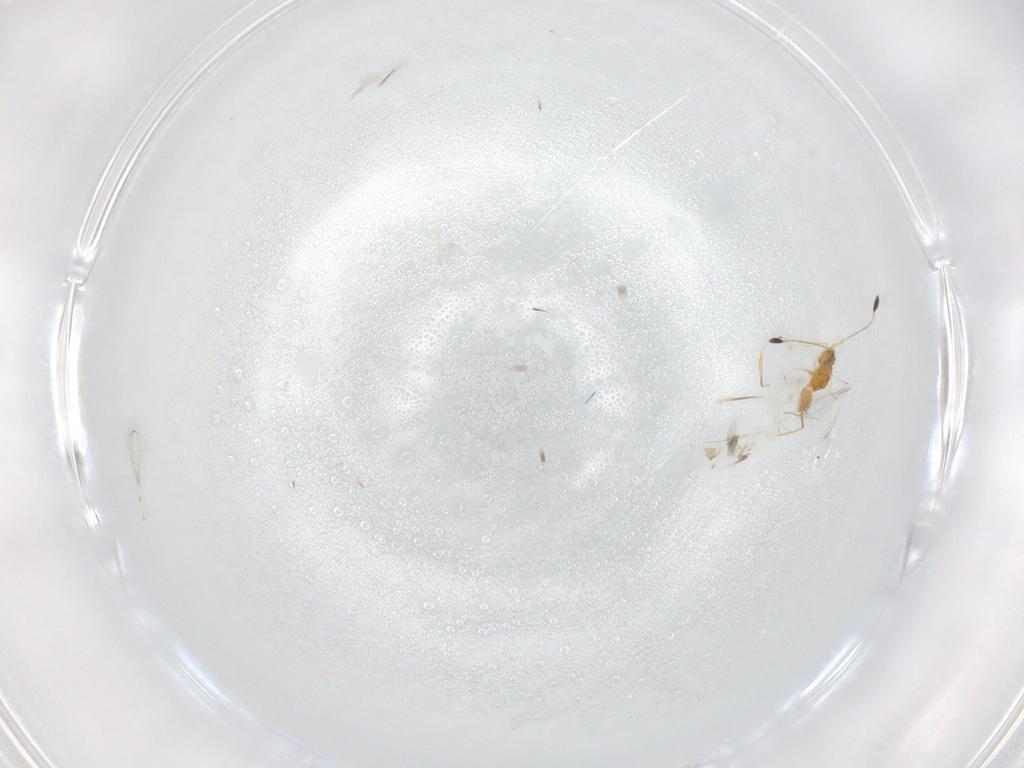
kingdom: Animalia
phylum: Arthropoda
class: Insecta
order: Hymenoptera
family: Mymaridae
